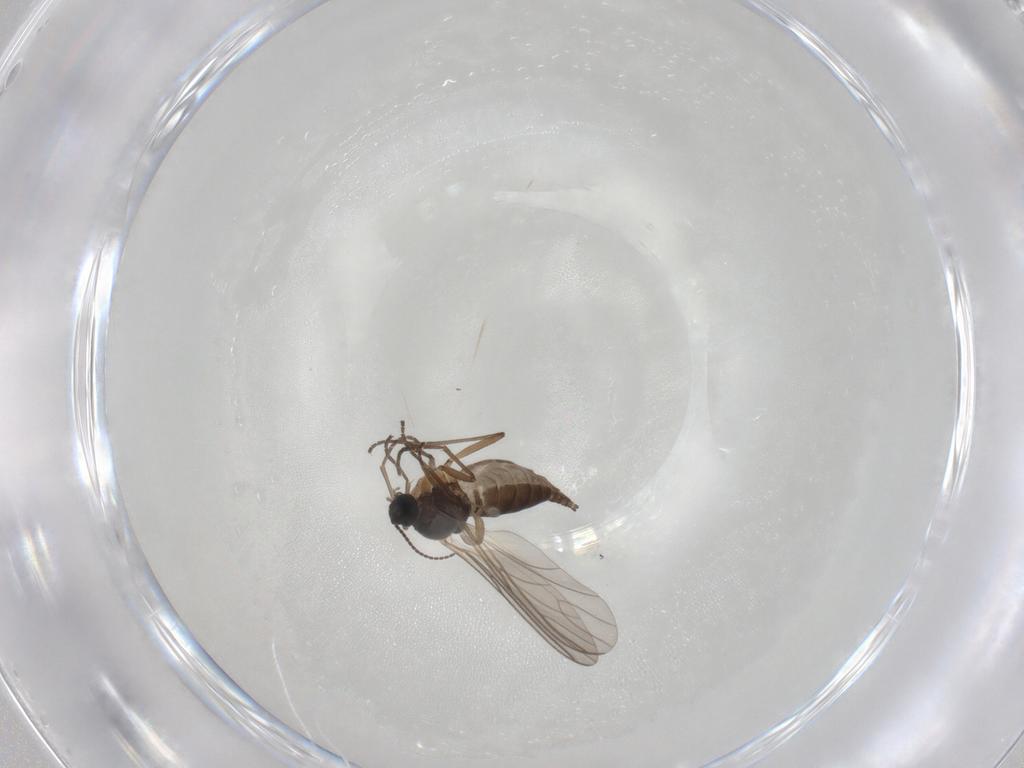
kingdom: Animalia
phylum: Arthropoda
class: Insecta
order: Diptera
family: Sciaridae
